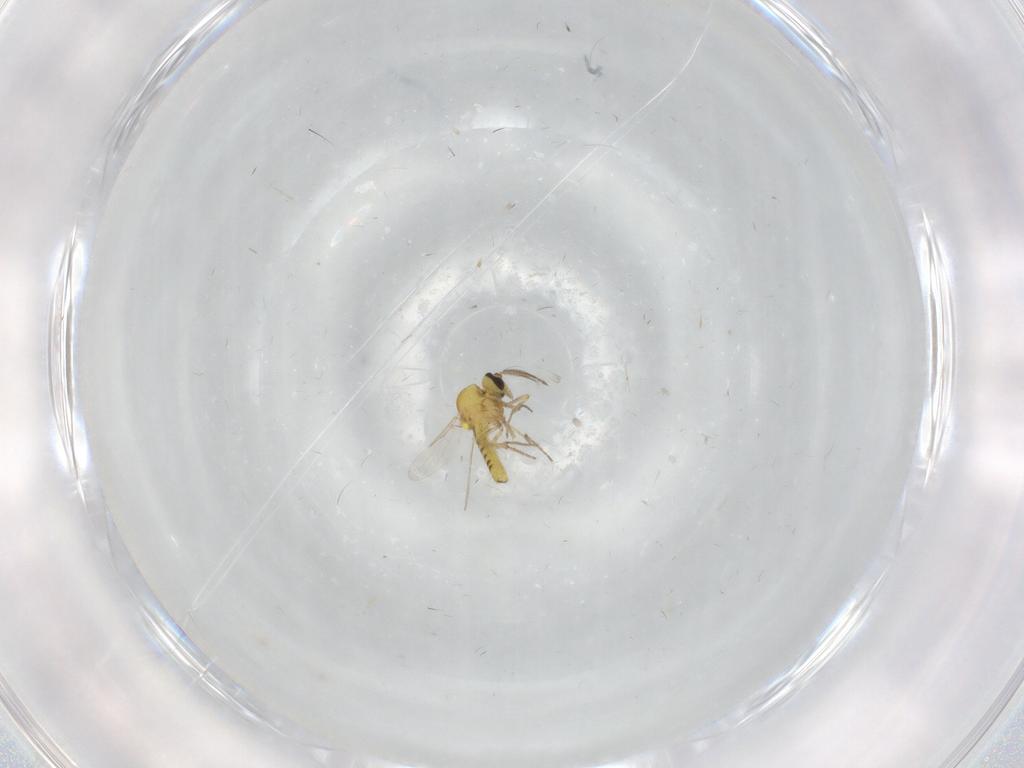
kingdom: Animalia
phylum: Arthropoda
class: Insecta
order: Diptera
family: Ceratopogonidae
